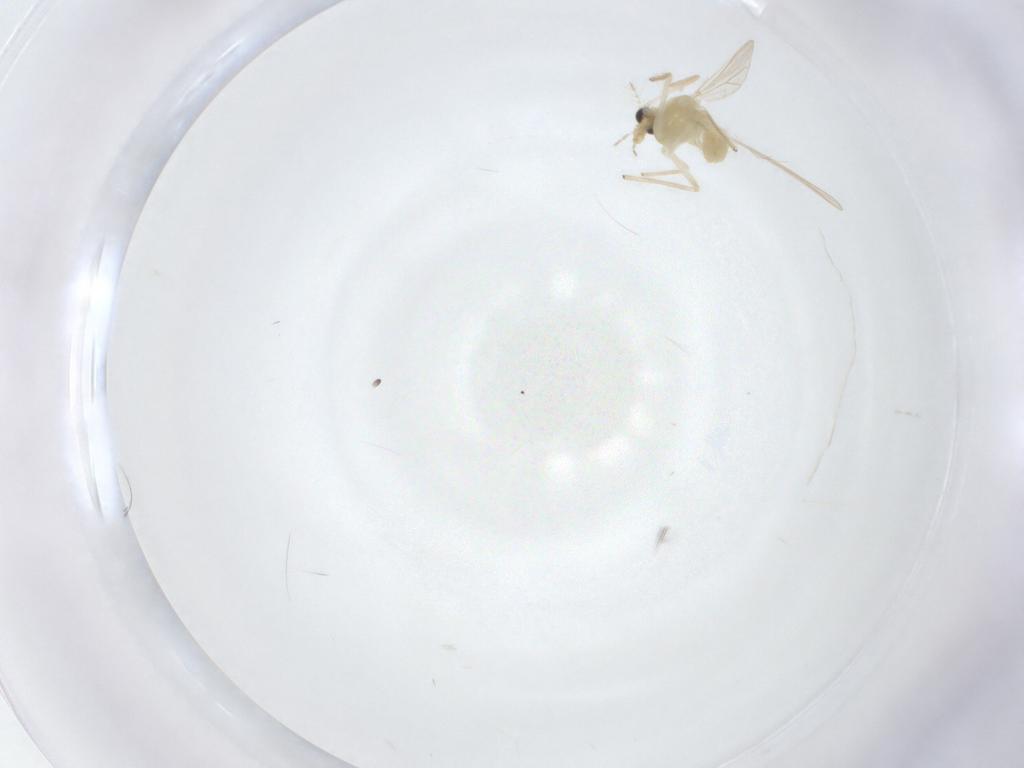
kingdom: Animalia
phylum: Arthropoda
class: Insecta
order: Diptera
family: Chironomidae
